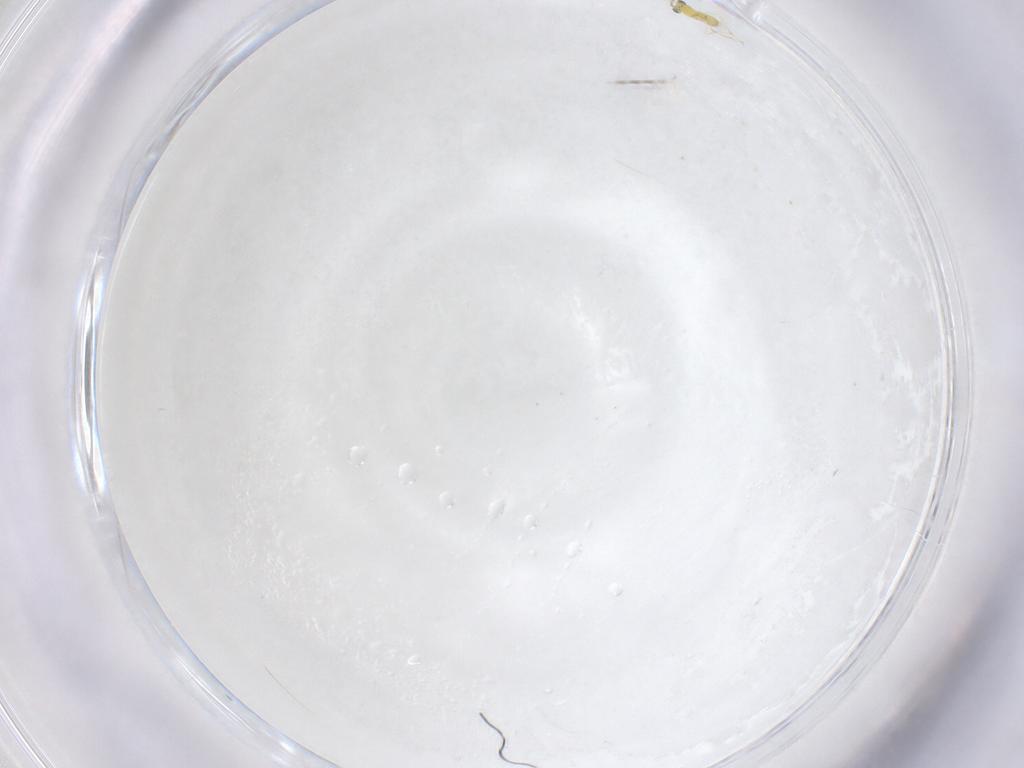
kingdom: Animalia
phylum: Arthropoda
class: Insecta
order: Hymenoptera
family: Trichogrammatidae
